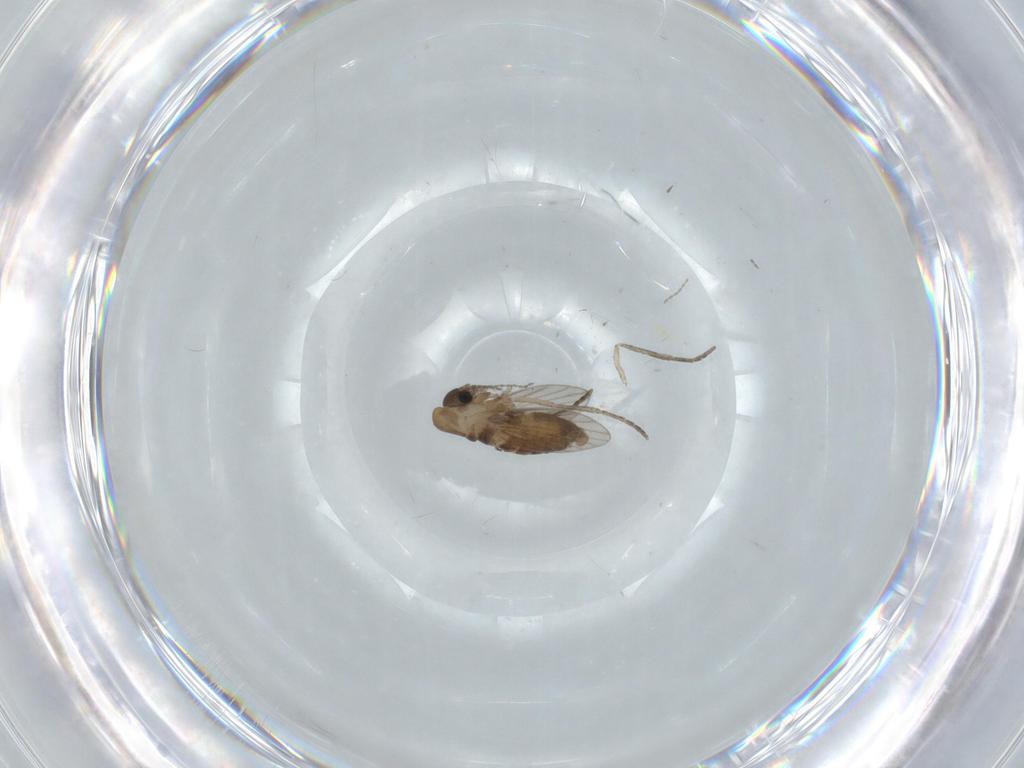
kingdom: Animalia
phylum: Arthropoda
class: Insecta
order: Diptera
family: Psychodidae
